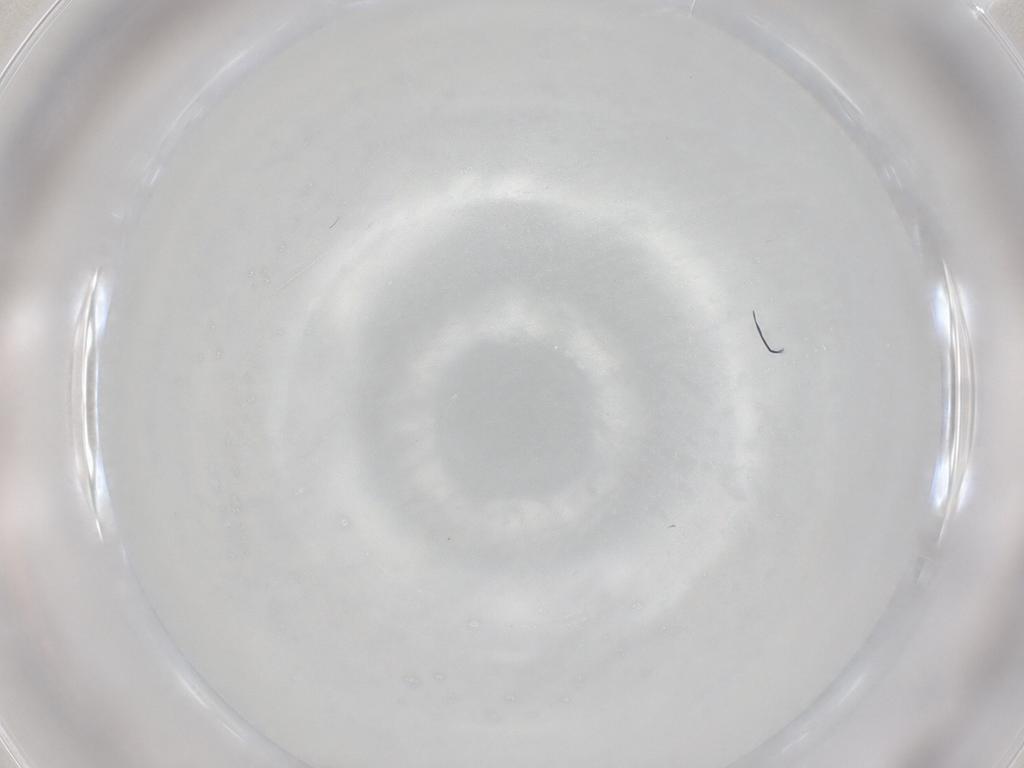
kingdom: Animalia
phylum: Arthropoda
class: Insecta
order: Diptera
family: Cecidomyiidae
